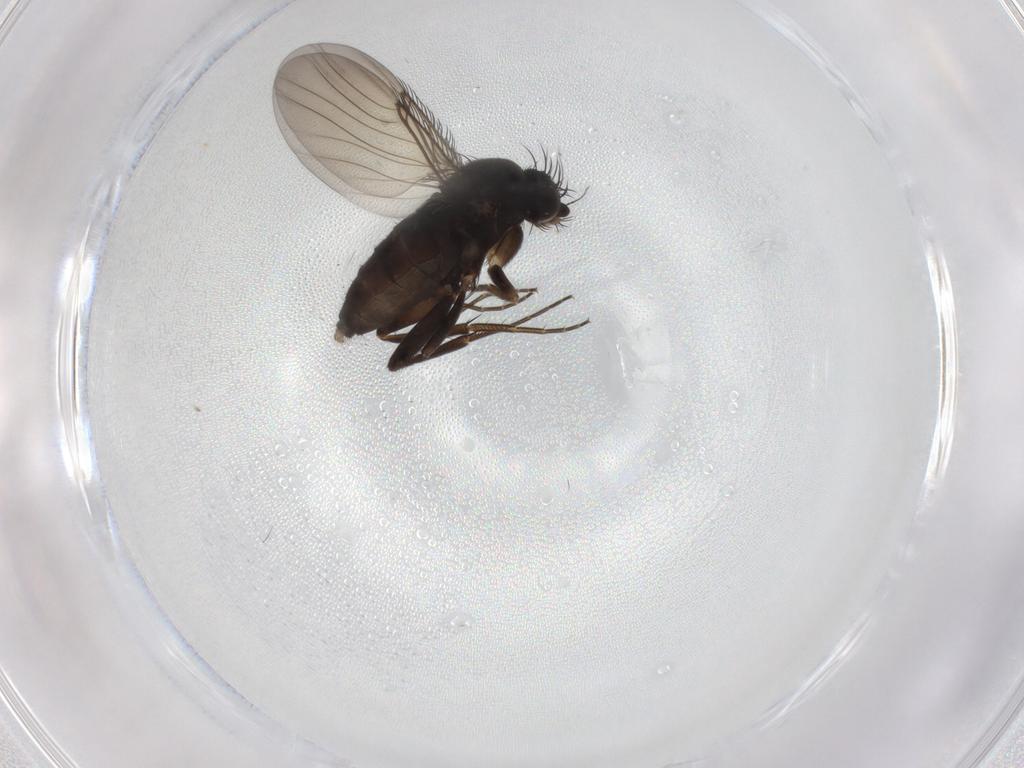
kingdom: Animalia
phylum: Arthropoda
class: Insecta
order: Diptera
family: Phoridae
